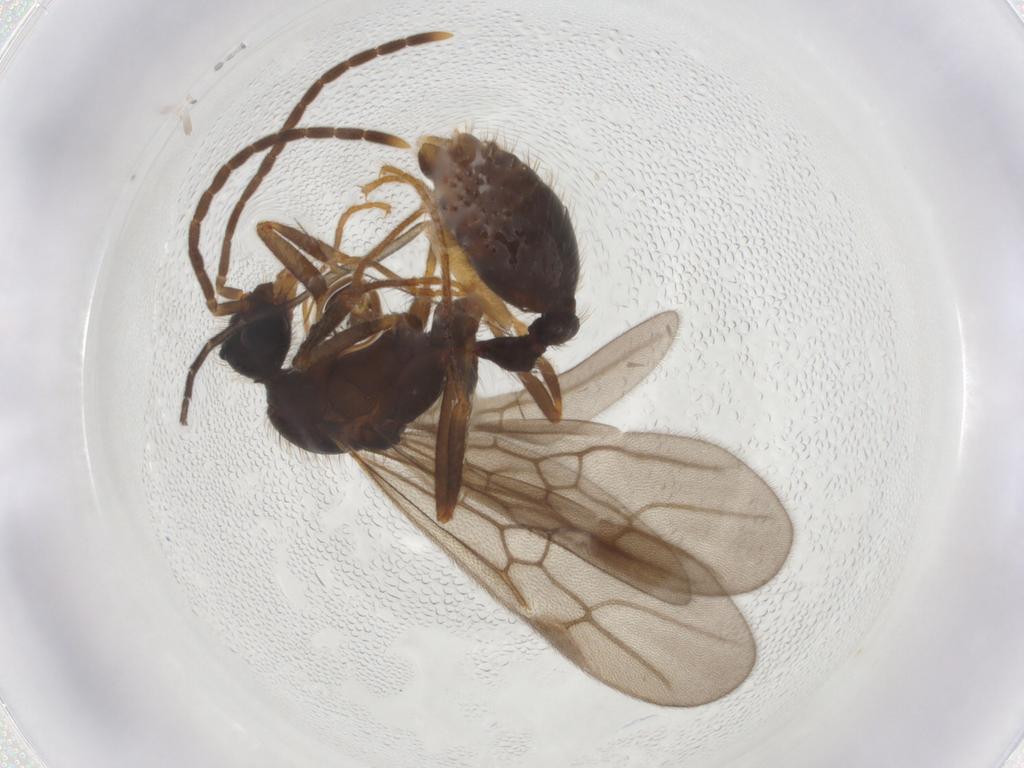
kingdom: Animalia
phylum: Arthropoda
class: Insecta
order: Hymenoptera
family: Formicidae
